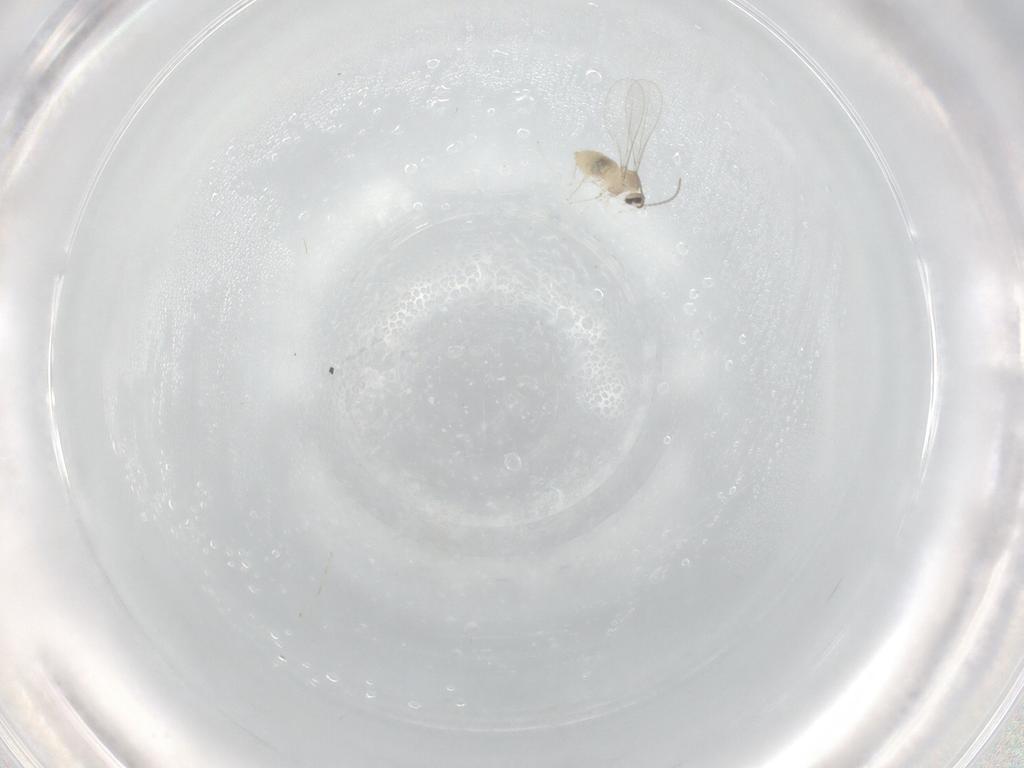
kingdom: Animalia
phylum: Arthropoda
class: Insecta
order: Diptera
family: Cecidomyiidae
